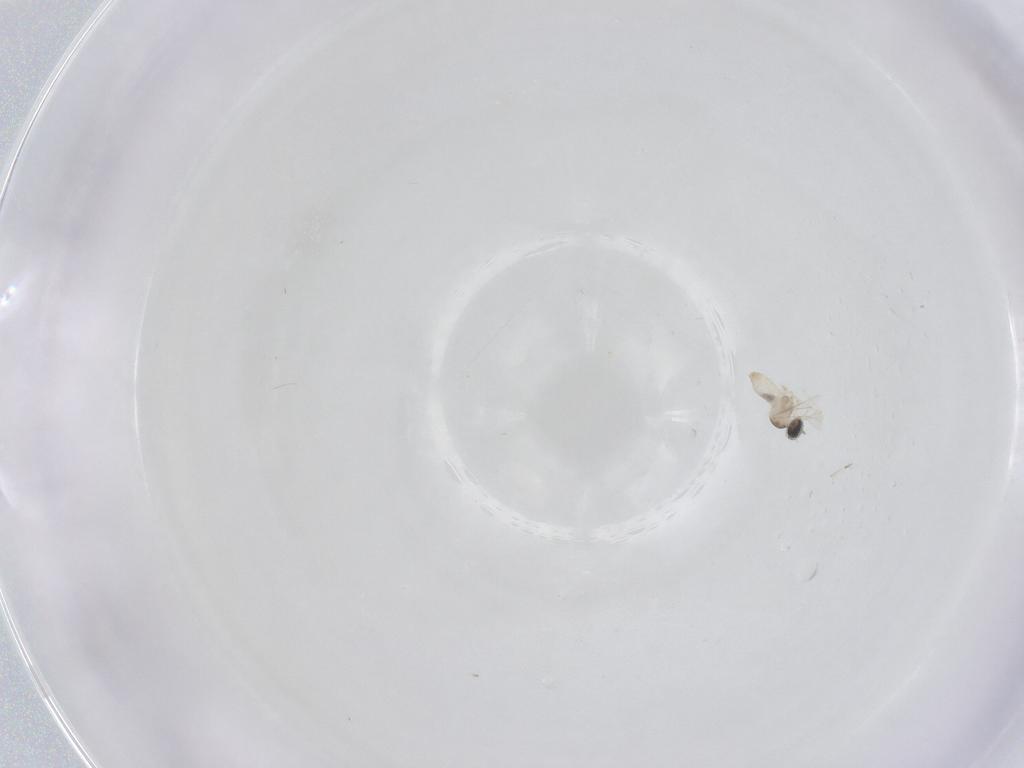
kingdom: Animalia
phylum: Arthropoda
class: Insecta
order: Diptera
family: Cecidomyiidae
